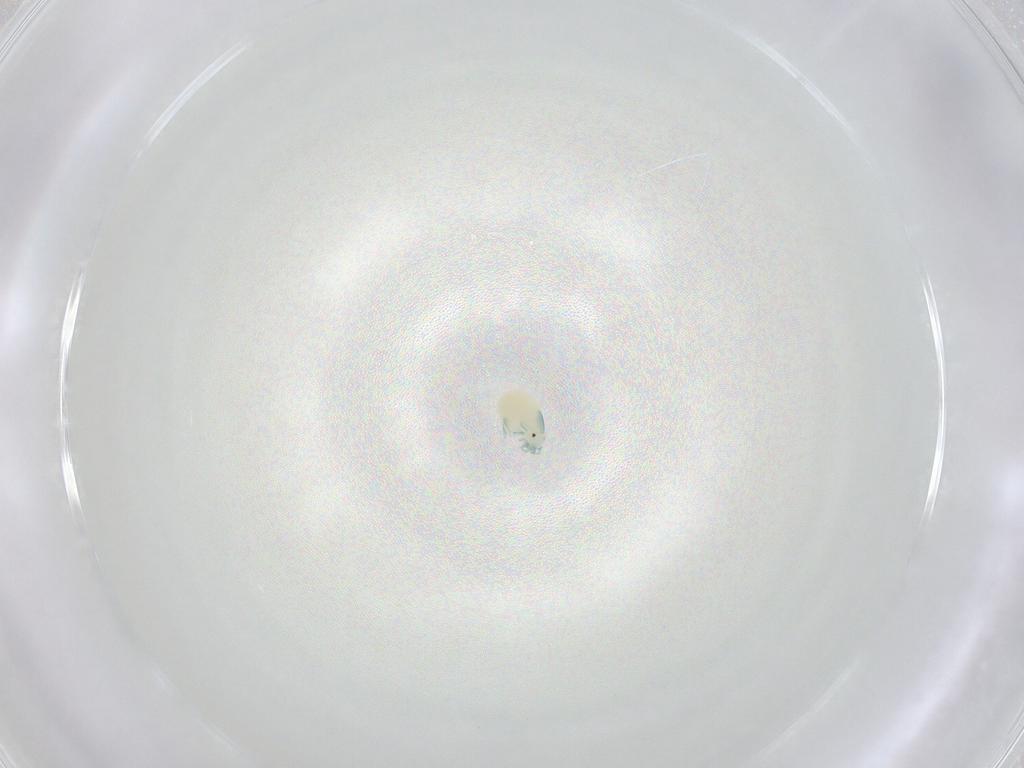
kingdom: Animalia
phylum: Arthropoda
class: Arachnida
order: Trombidiformes
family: Arrenuridae
